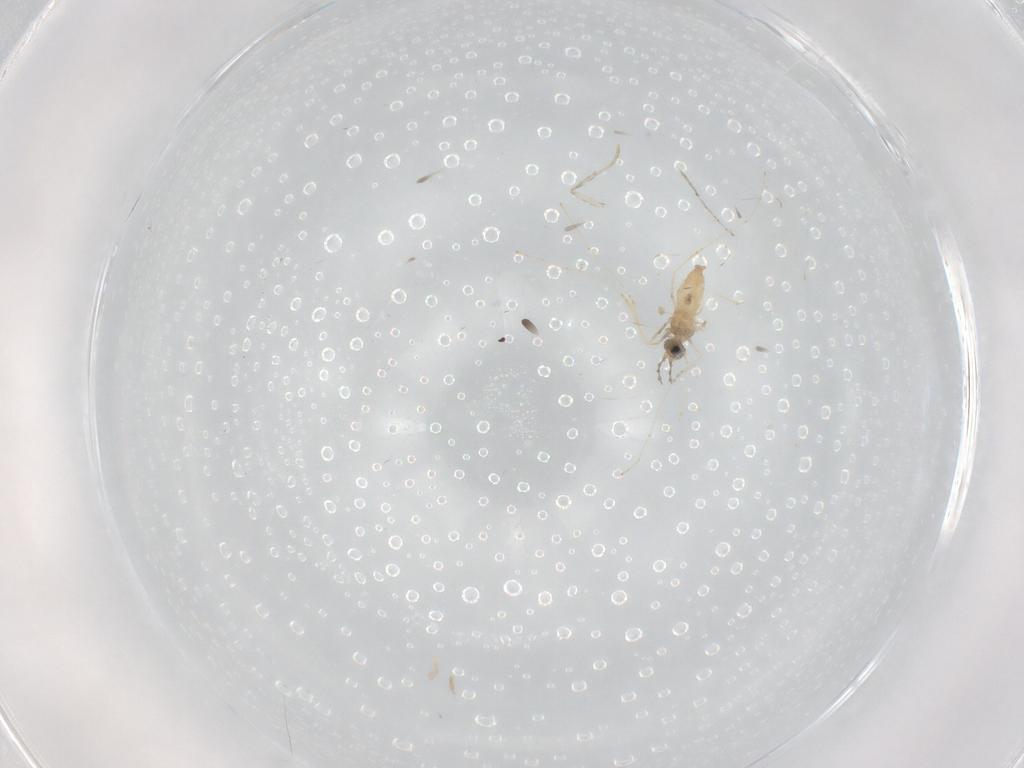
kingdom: Animalia
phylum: Arthropoda
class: Insecta
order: Diptera
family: Cecidomyiidae
